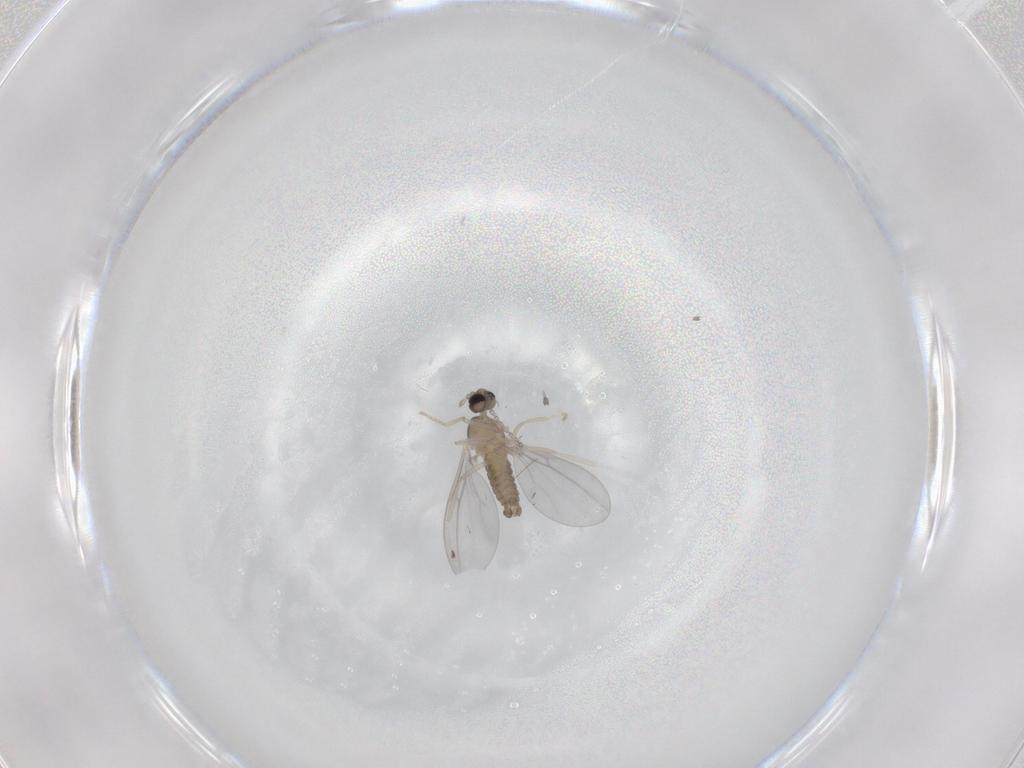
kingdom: Animalia
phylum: Arthropoda
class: Insecta
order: Diptera
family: Cecidomyiidae
